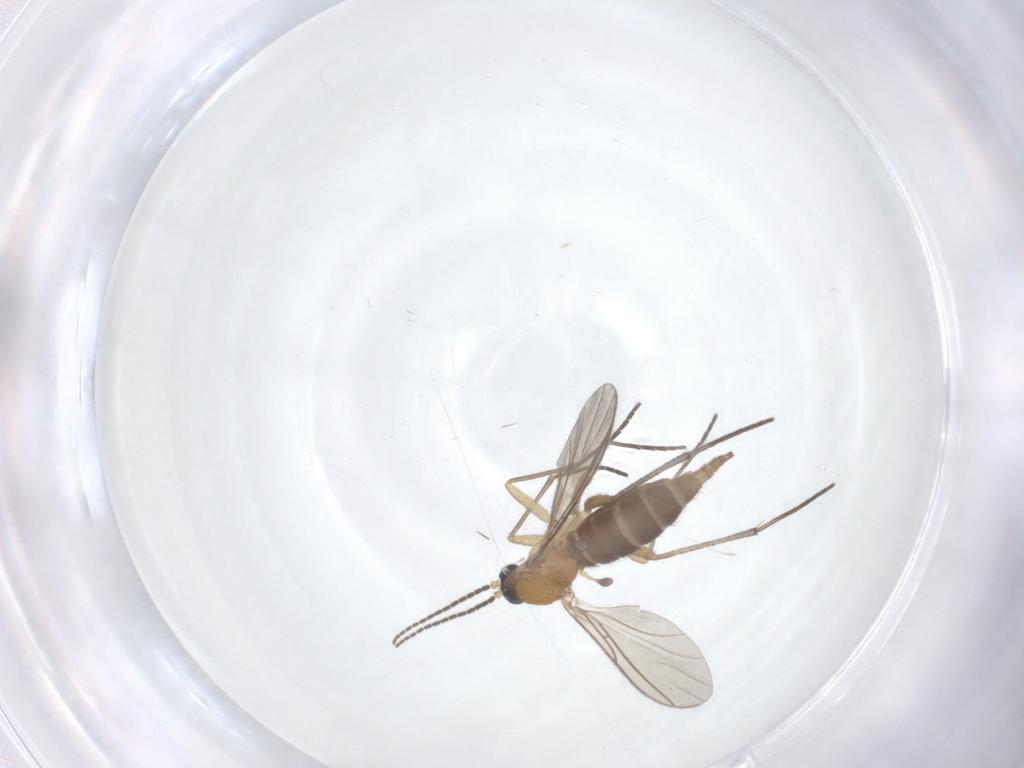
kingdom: Animalia
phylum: Arthropoda
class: Insecta
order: Diptera
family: Sciaridae
